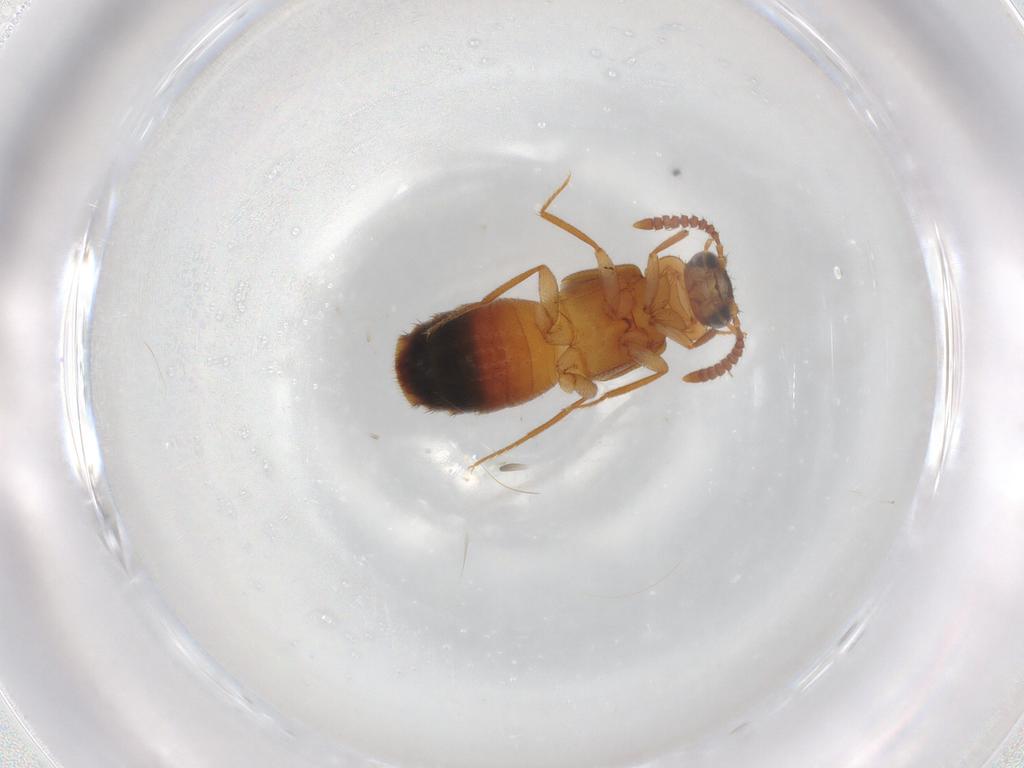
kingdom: Animalia
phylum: Arthropoda
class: Insecta
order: Coleoptera
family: Staphylinidae
